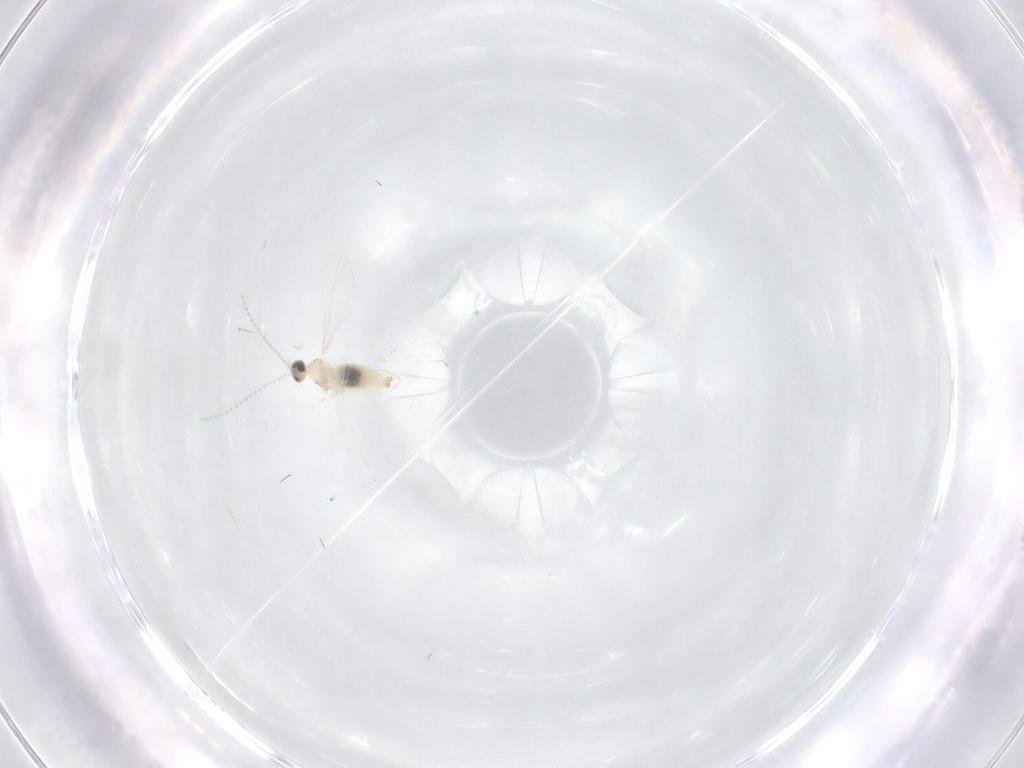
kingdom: Animalia
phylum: Arthropoda
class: Insecta
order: Diptera
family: Cecidomyiidae
